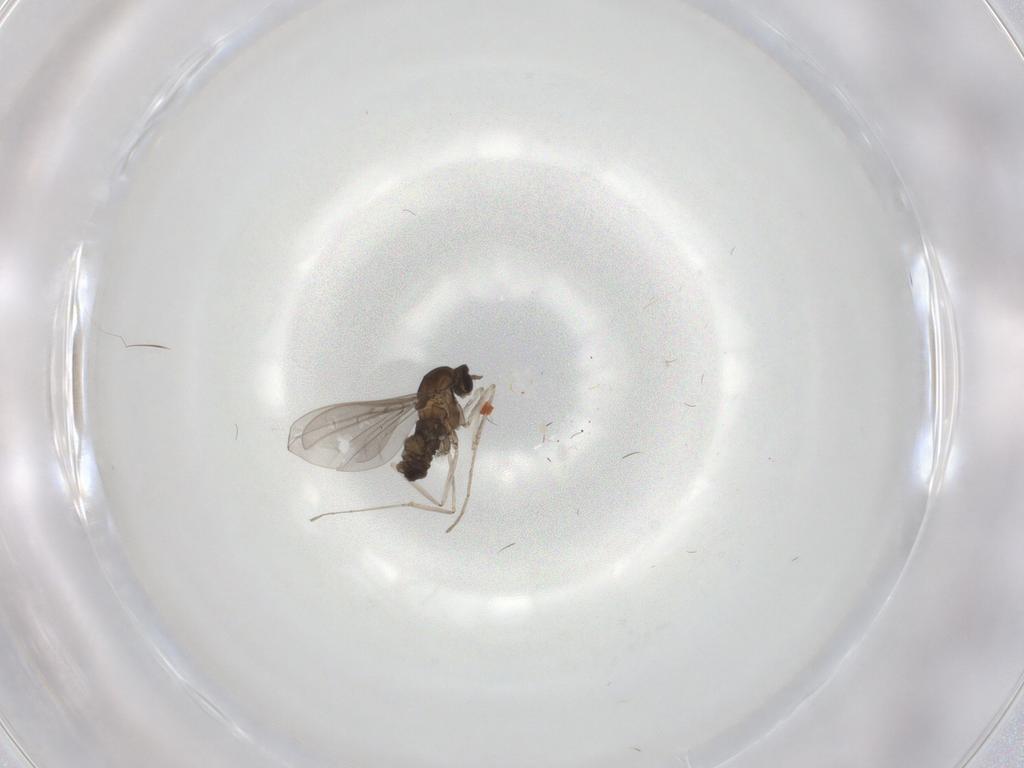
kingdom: Animalia
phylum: Arthropoda
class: Insecta
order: Diptera
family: Cecidomyiidae
